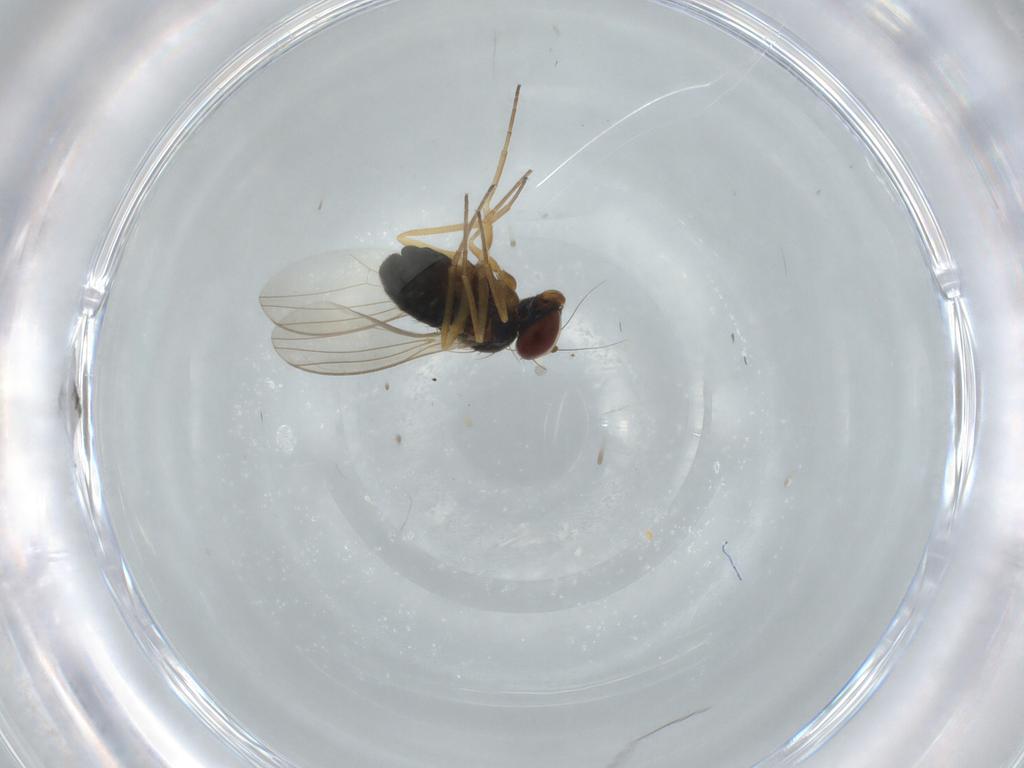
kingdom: Animalia
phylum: Arthropoda
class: Insecta
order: Diptera
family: Dolichopodidae
